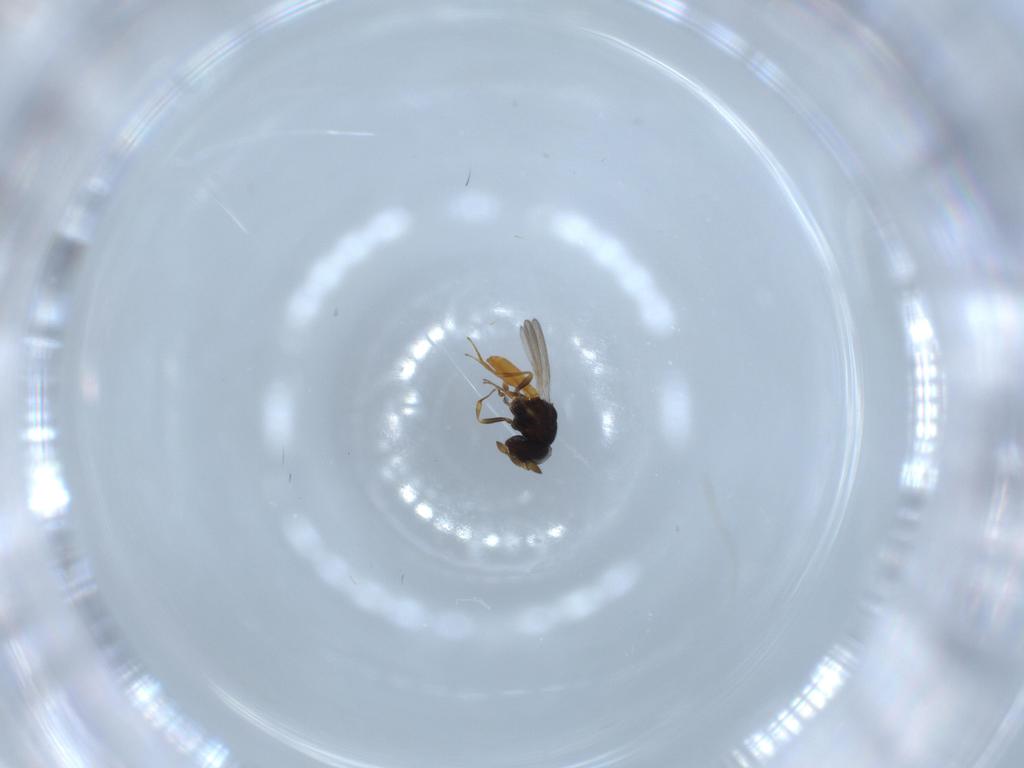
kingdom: Animalia
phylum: Arthropoda
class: Insecta
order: Hymenoptera
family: Scelionidae
